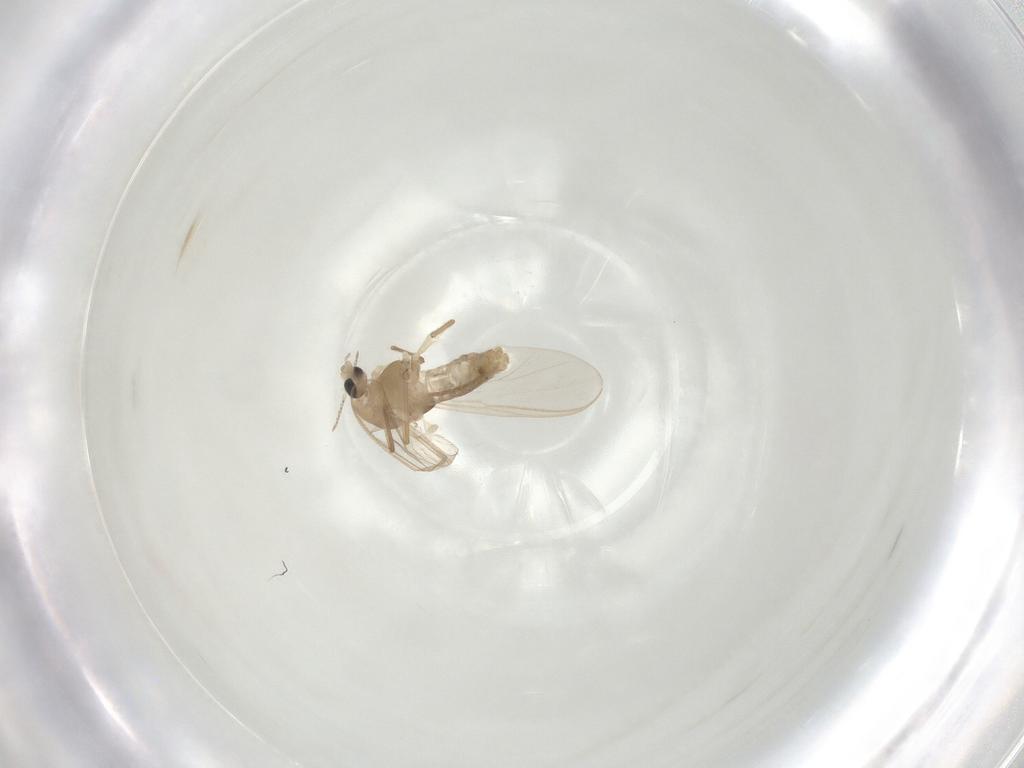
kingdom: Animalia
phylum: Arthropoda
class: Insecta
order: Diptera
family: Chironomidae
